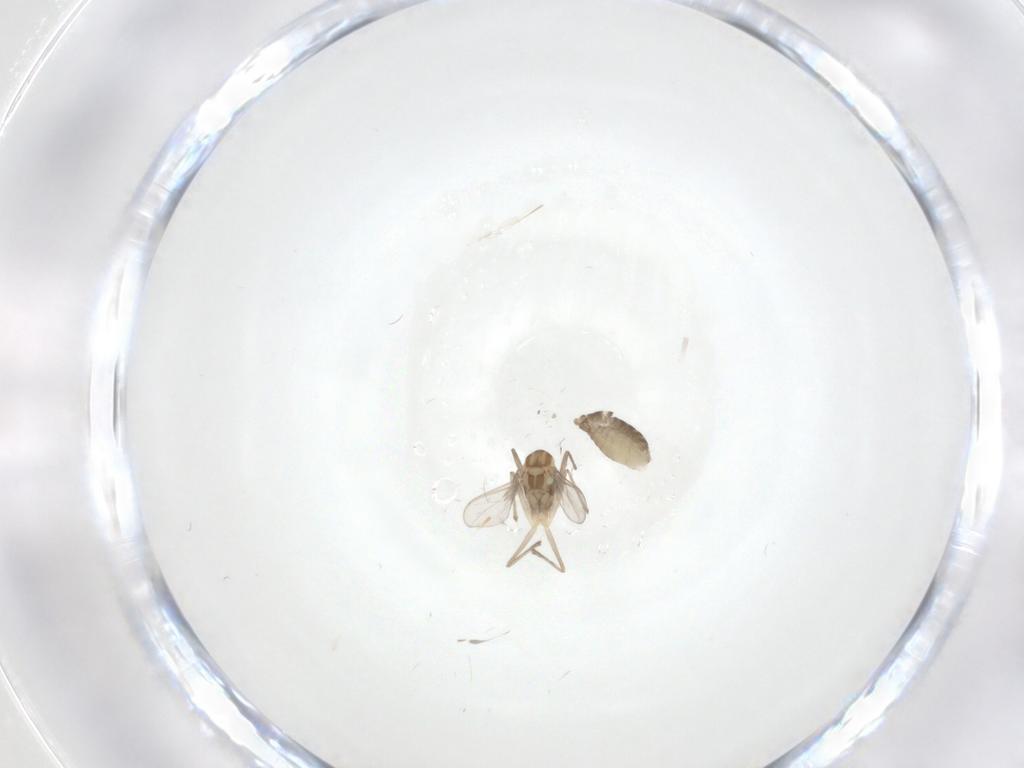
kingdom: Animalia
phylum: Arthropoda
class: Insecta
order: Diptera
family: Chironomidae
